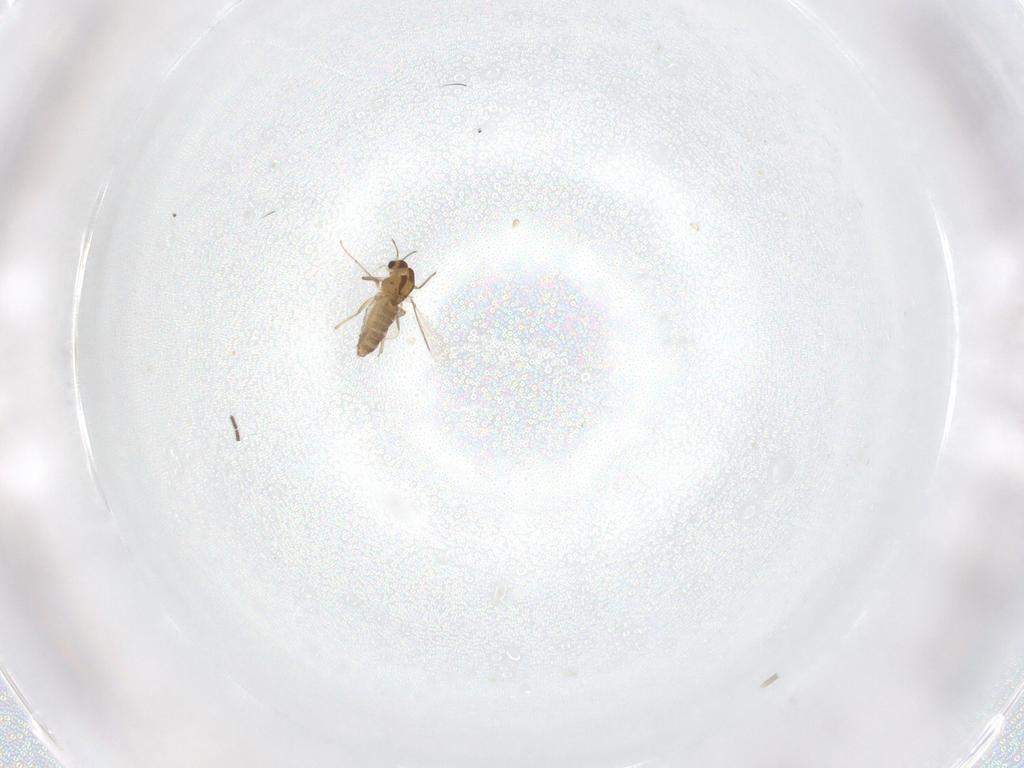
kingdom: Animalia
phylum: Arthropoda
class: Insecta
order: Diptera
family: Chironomidae
